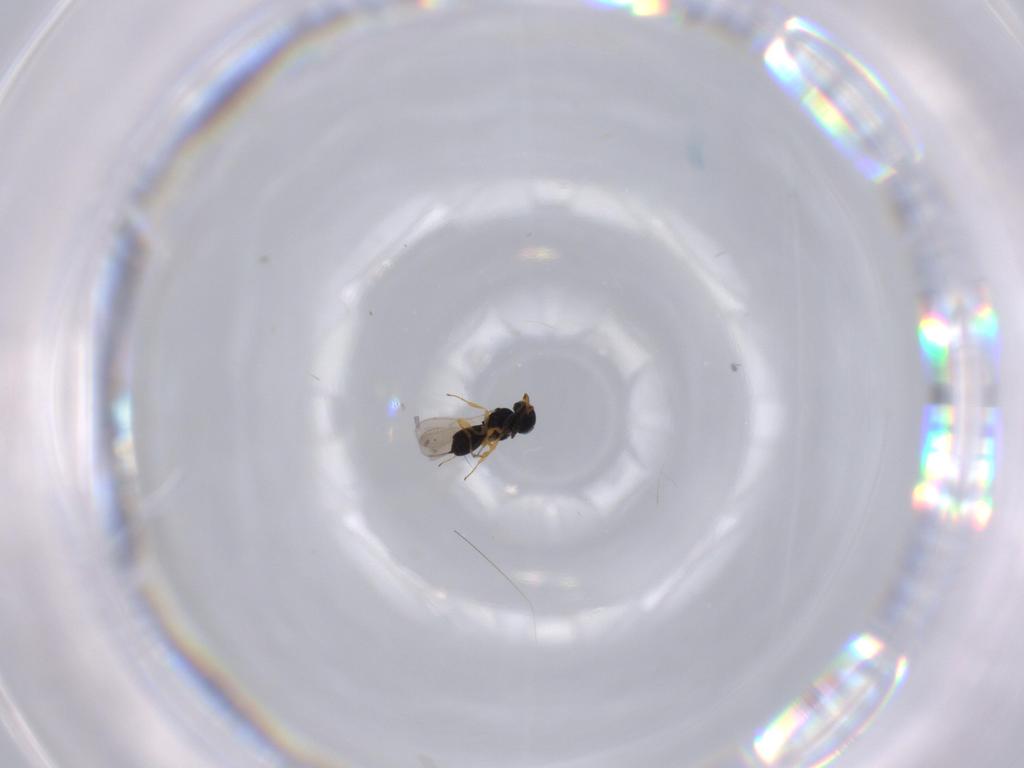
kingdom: Animalia
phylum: Arthropoda
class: Insecta
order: Hymenoptera
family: Scelionidae
